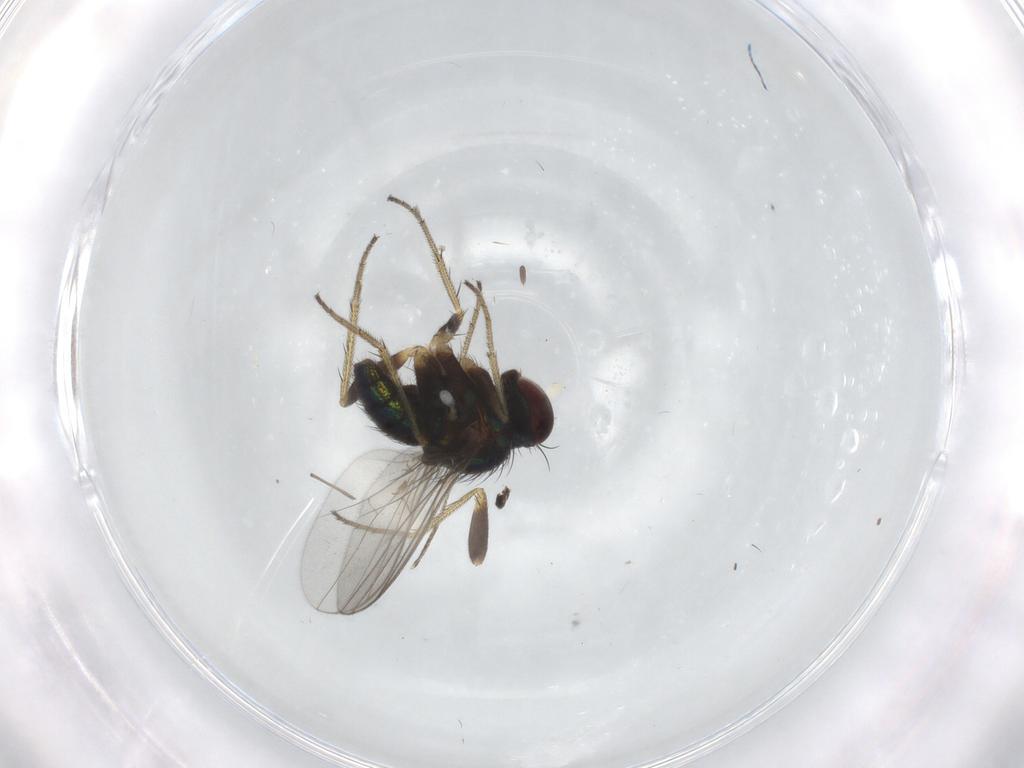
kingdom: Animalia
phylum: Arthropoda
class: Insecta
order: Diptera
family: Limoniidae
